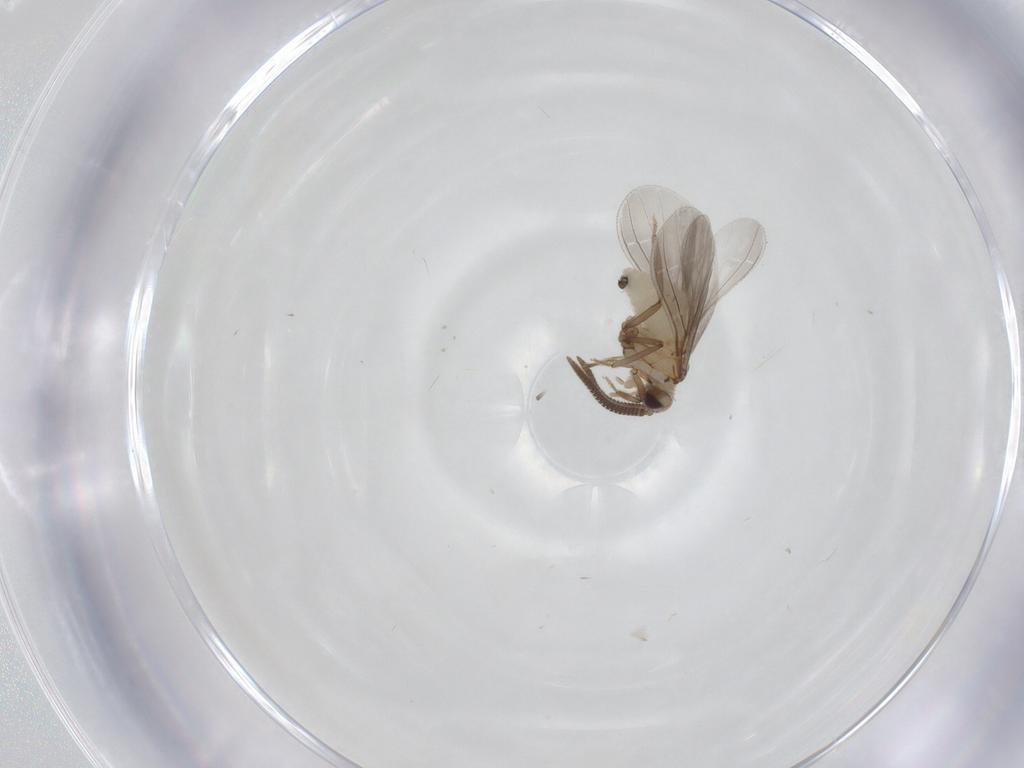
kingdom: Animalia
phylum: Arthropoda
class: Insecta
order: Neuroptera
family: Coniopterygidae
